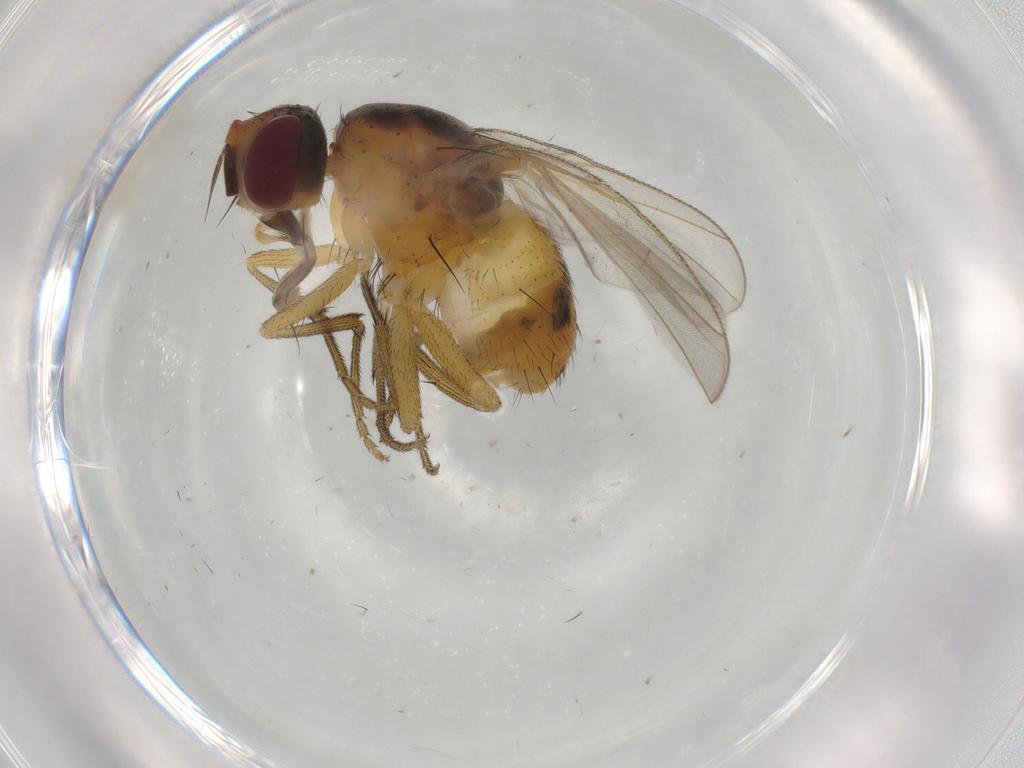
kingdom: Animalia
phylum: Arthropoda
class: Insecta
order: Diptera
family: Muscidae
